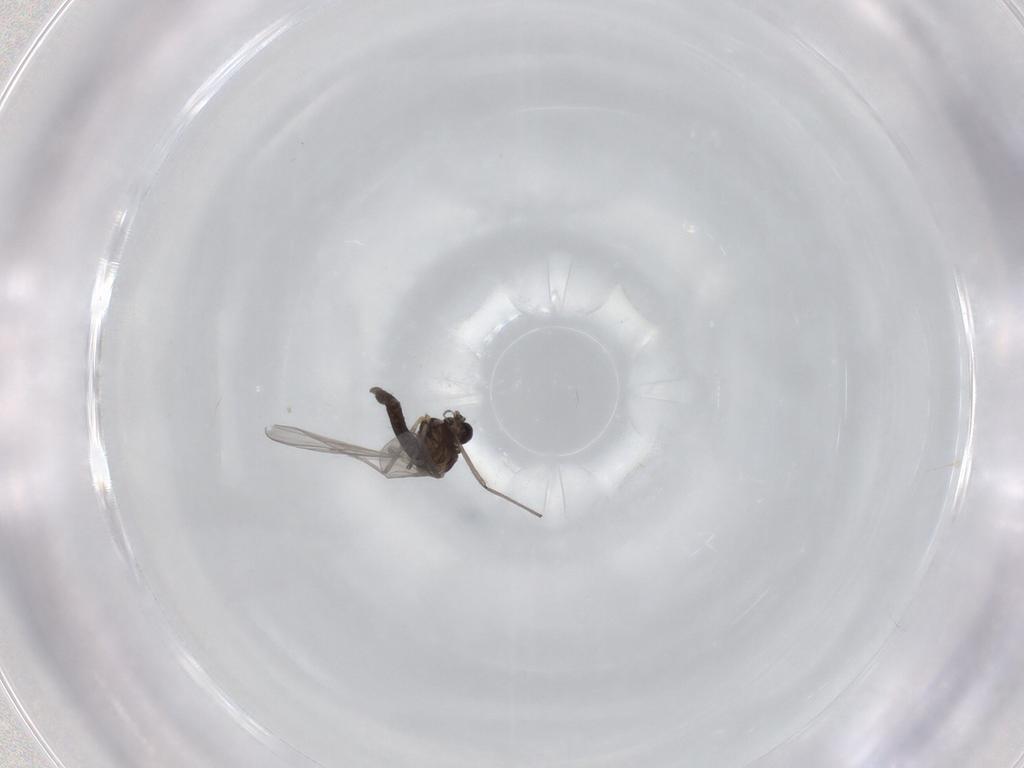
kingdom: Animalia
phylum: Arthropoda
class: Insecta
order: Diptera
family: Chironomidae
